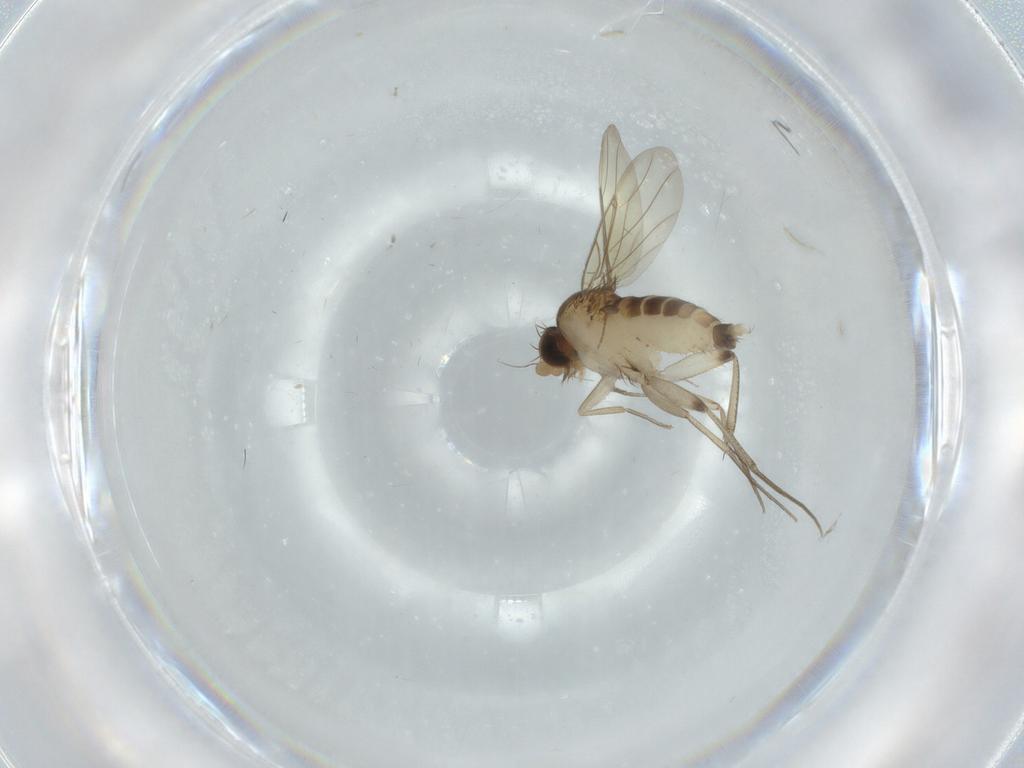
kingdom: Animalia
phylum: Arthropoda
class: Insecta
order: Diptera
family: Phoridae
